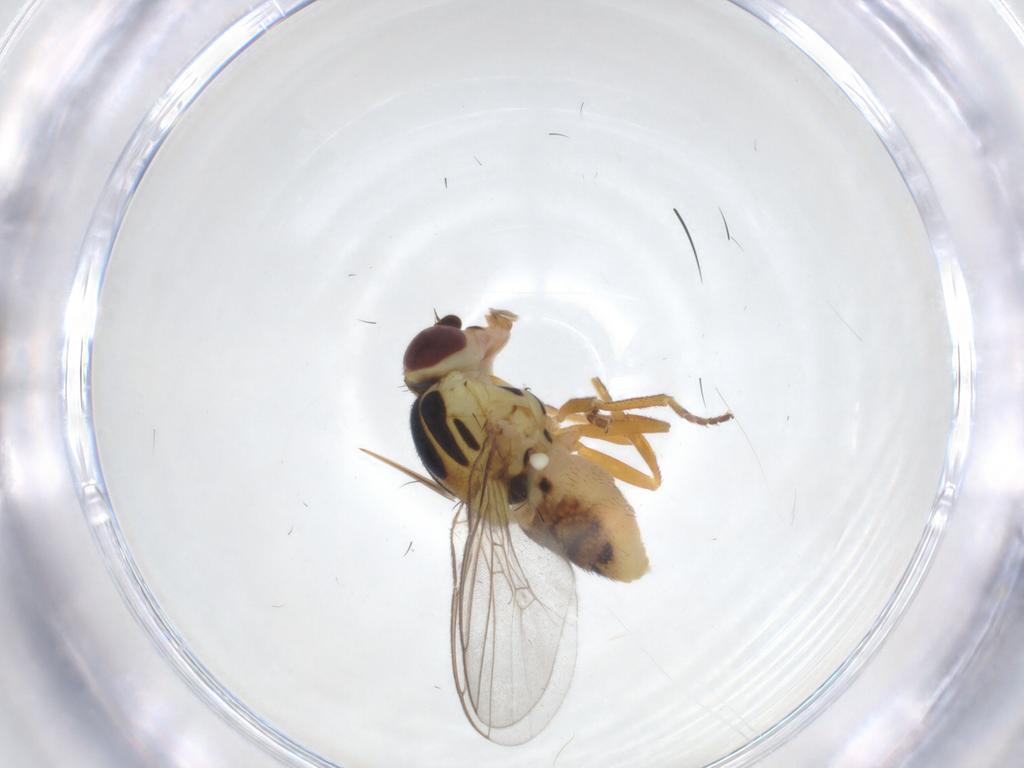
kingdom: Animalia
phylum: Arthropoda
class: Insecta
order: Diptera
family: Chloropidae
